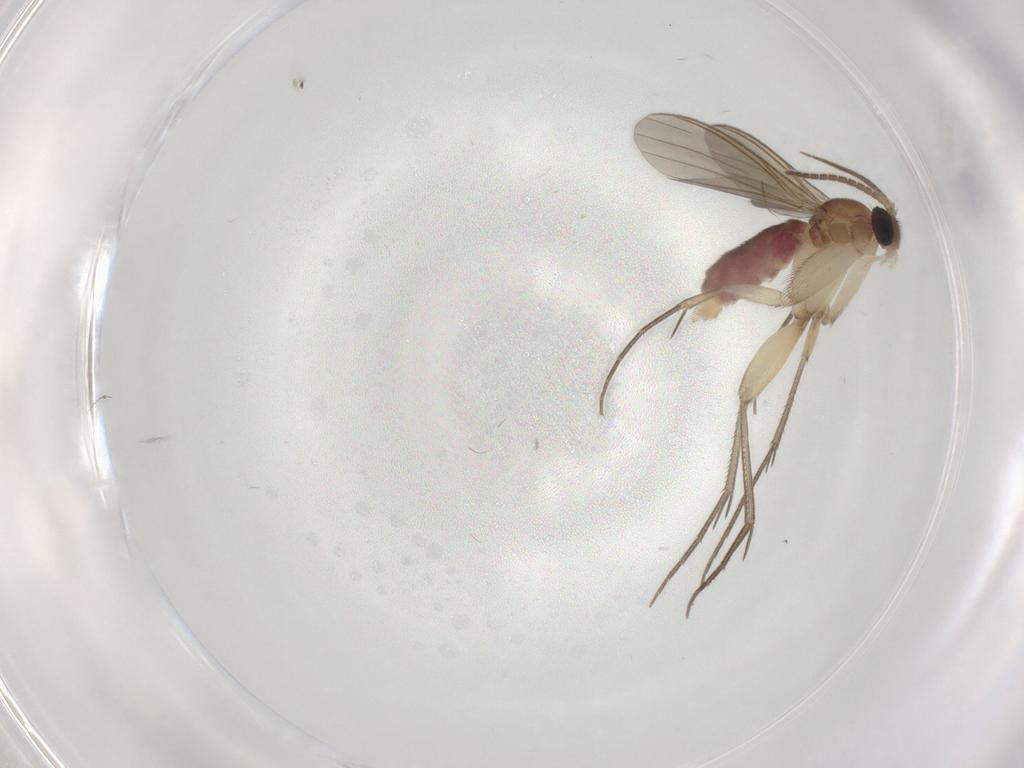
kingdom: Animalia
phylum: Arthropoda
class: Insecta
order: Diptera
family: Mycetophilidae
